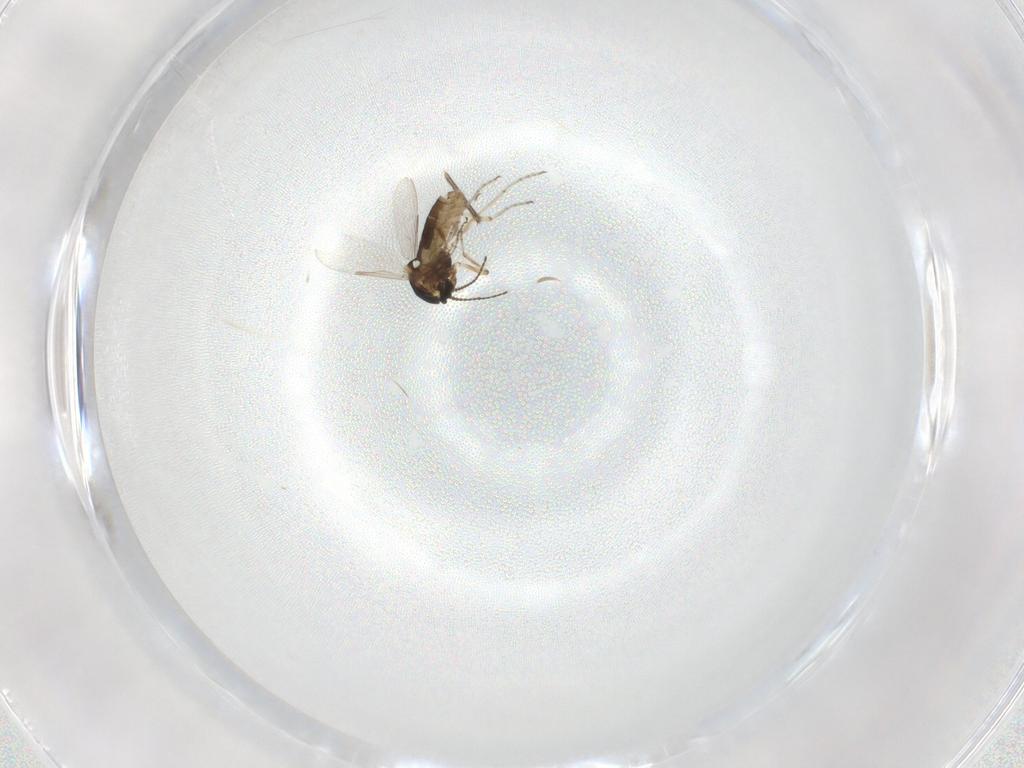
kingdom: Animalia
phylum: Arthropoda
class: Insecta
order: Diptera
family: Ceratopogonidae
